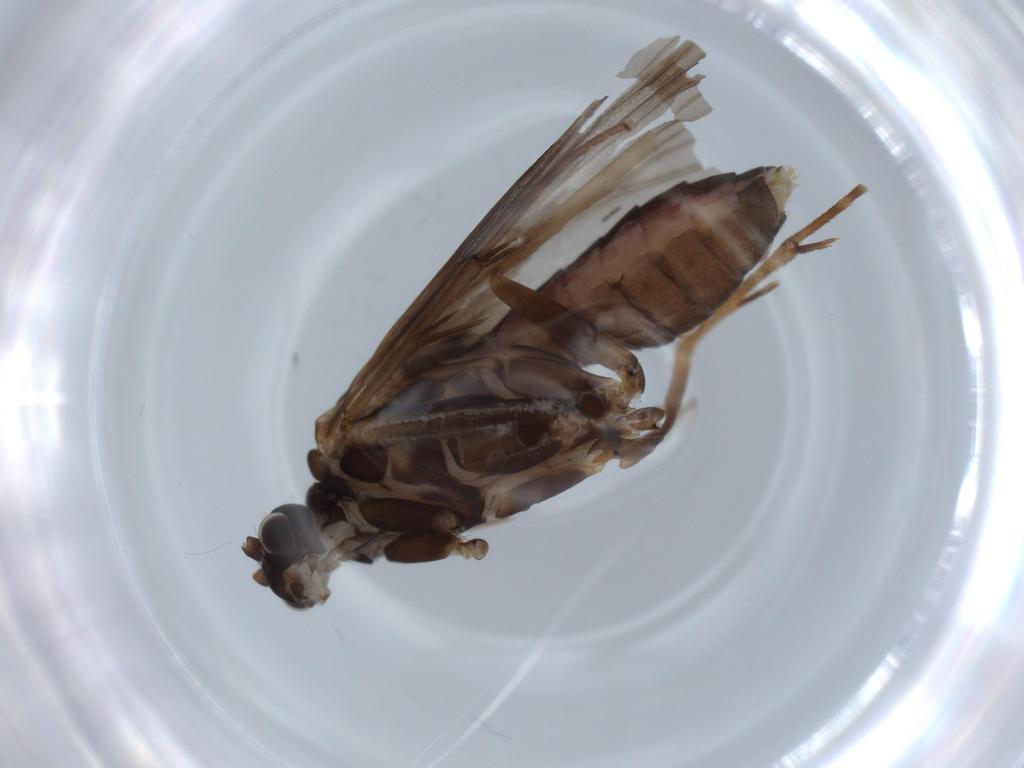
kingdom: Animalia
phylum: Arthropoda
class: Insecta
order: Trichoptera
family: Hydropsychidae
